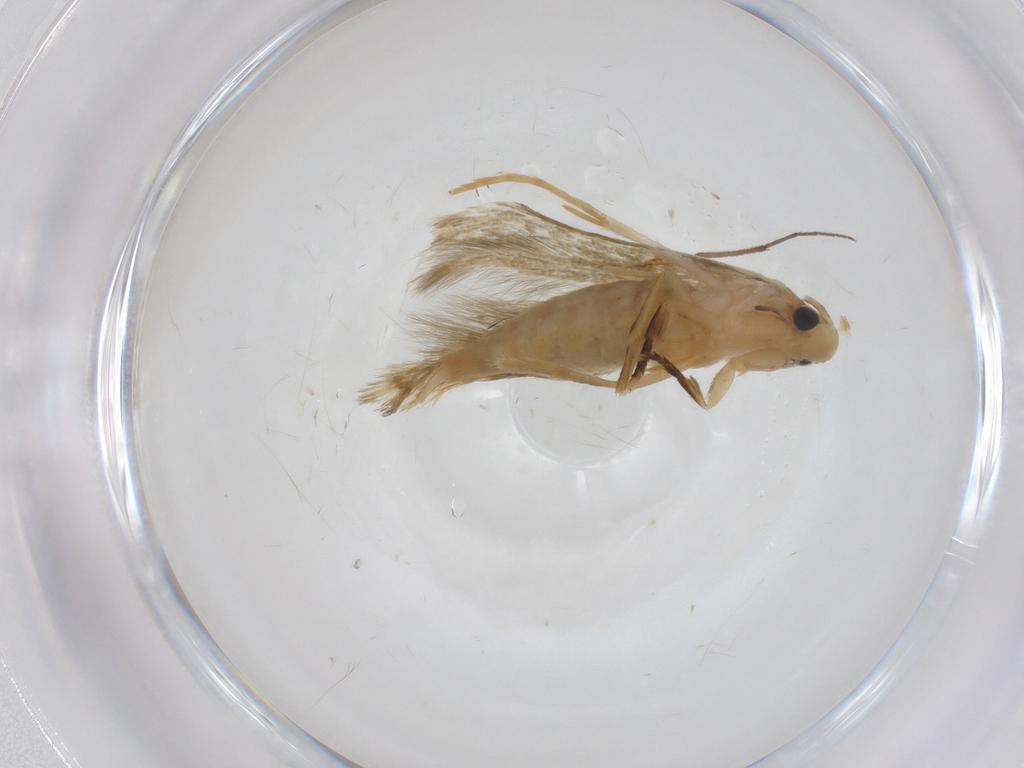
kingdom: Animalia
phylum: Arthropoda
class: Insecta
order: Lepidoptera
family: Tineidae
